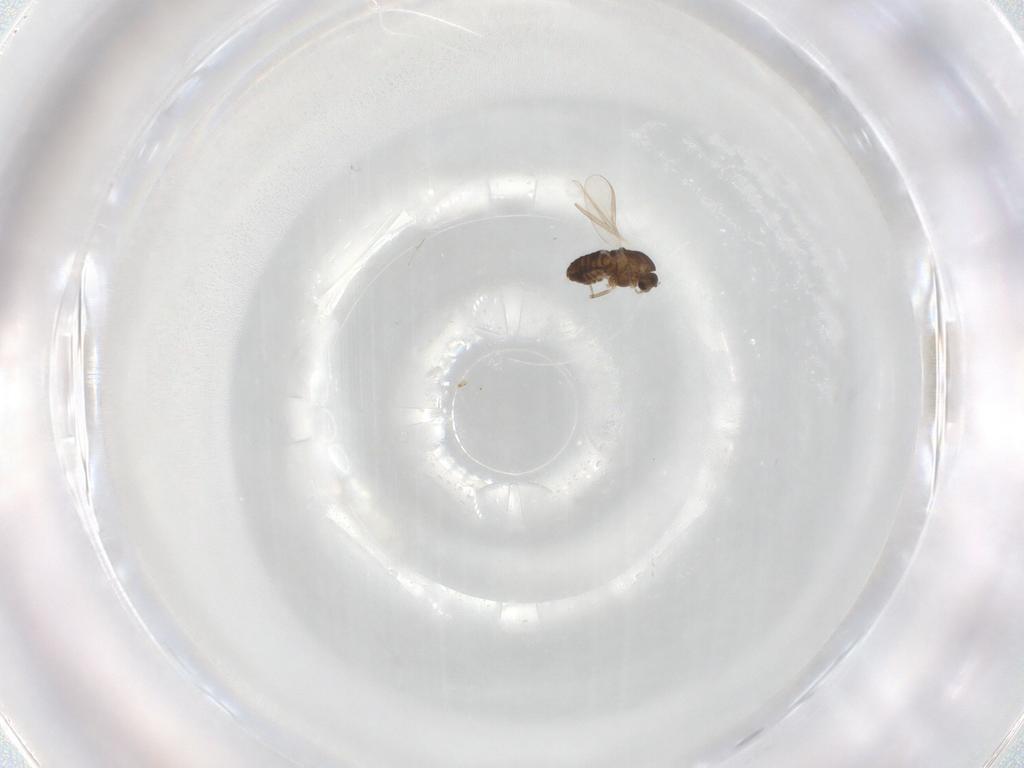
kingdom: Animalia
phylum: Arthropoda
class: Insecta
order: Diptera
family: Chironomidae
